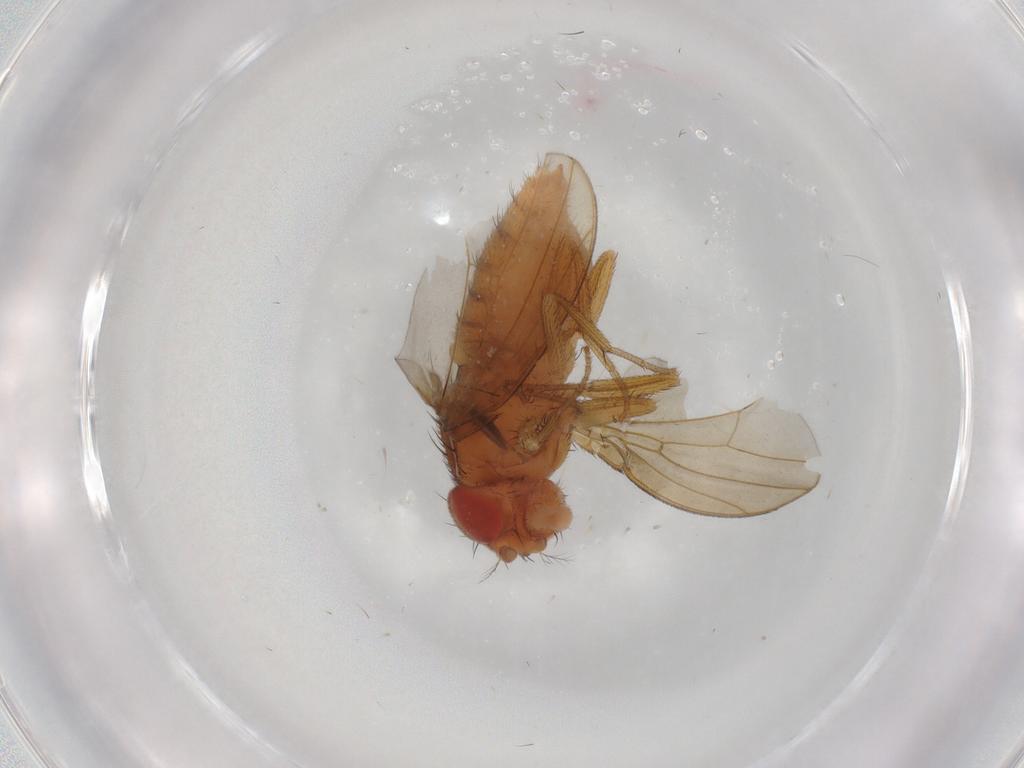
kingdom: Animalia
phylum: Arthropoda
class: Insecta
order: Diptera
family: Drosophilidae
